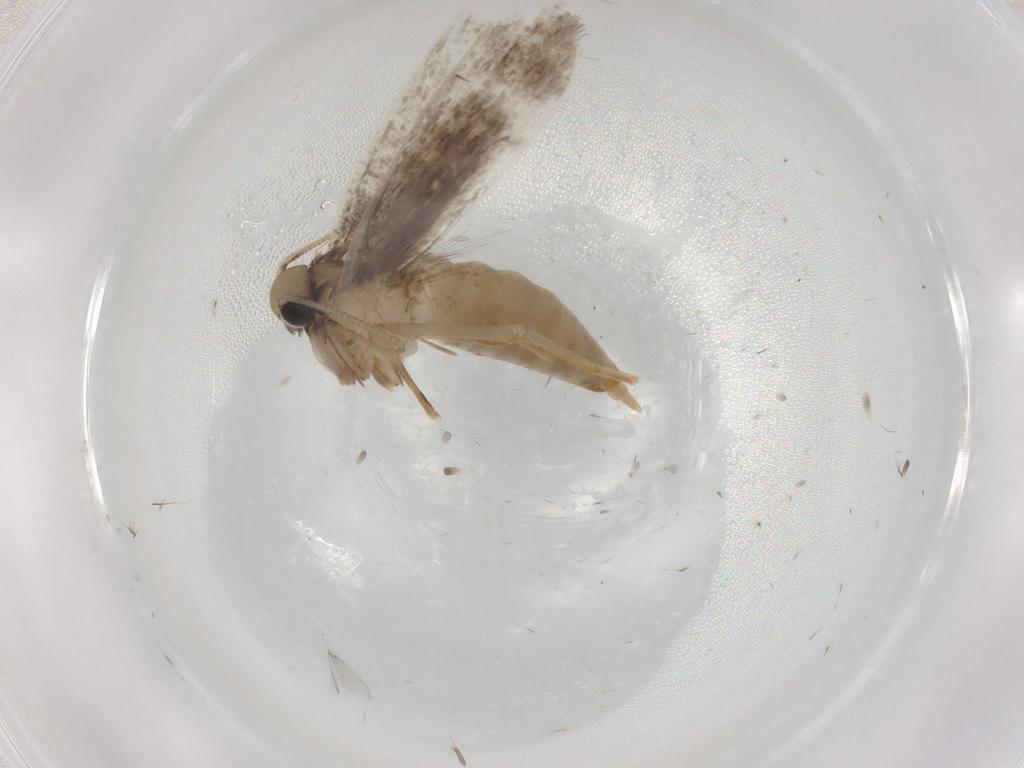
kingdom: Animalia
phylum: Arthropoda
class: Insecta
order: Lepidoptera
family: Tineidae
